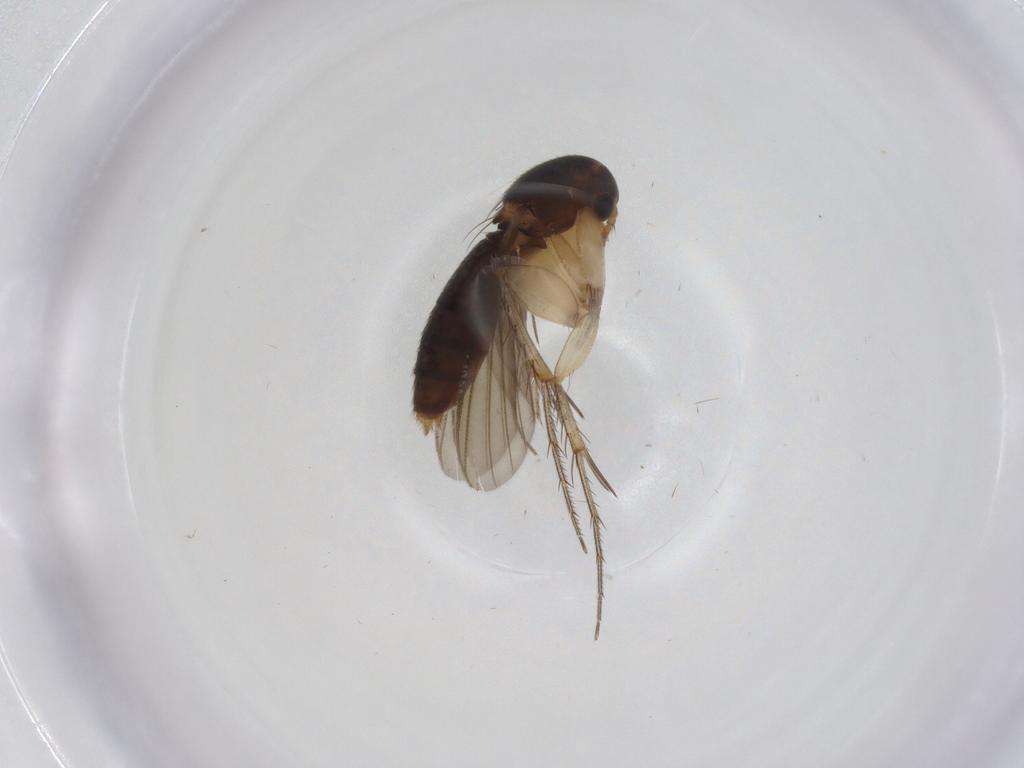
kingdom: Animalia
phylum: Arthropoda
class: Insecta
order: Diptera
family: Mycetophilidae
